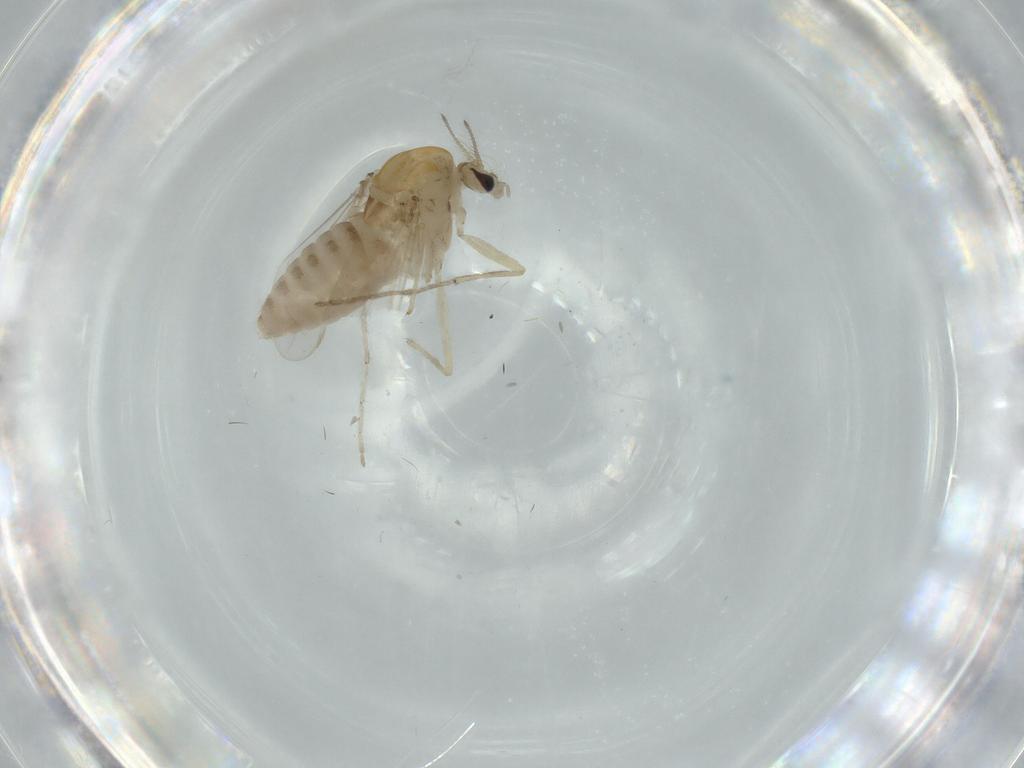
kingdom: Animalia
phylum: Arthropoda
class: Insecta
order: Diptera
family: Chironomidae
